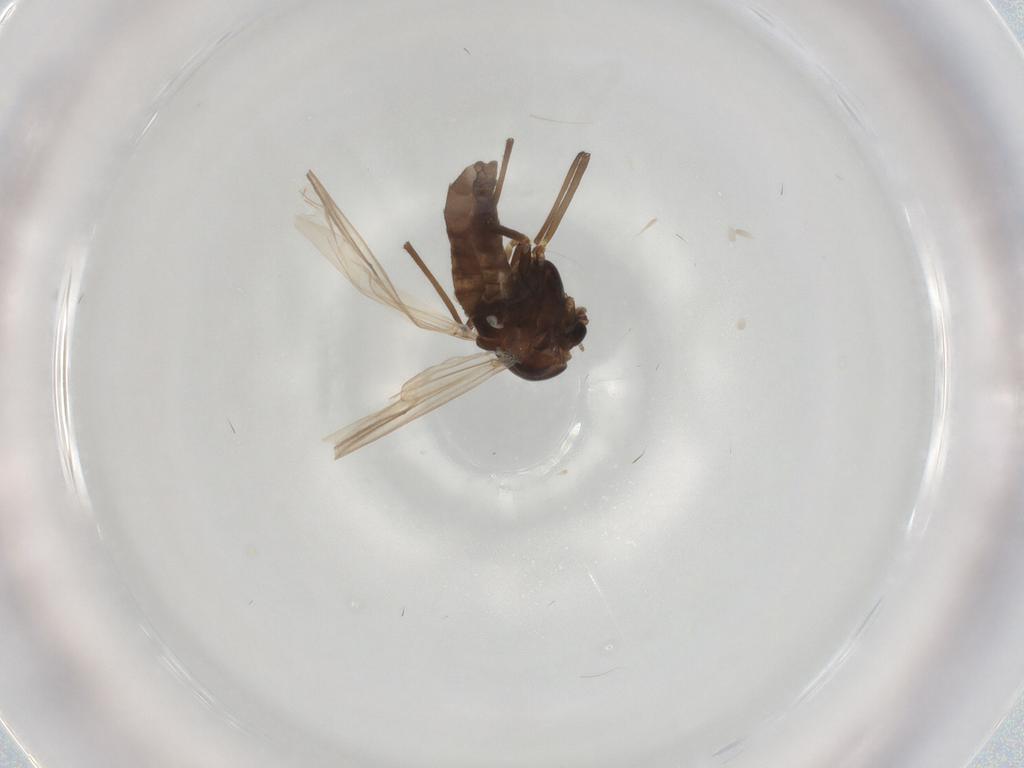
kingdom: Animalia
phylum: Arthropoda
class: Insecta
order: Diptera
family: Chironomidae
